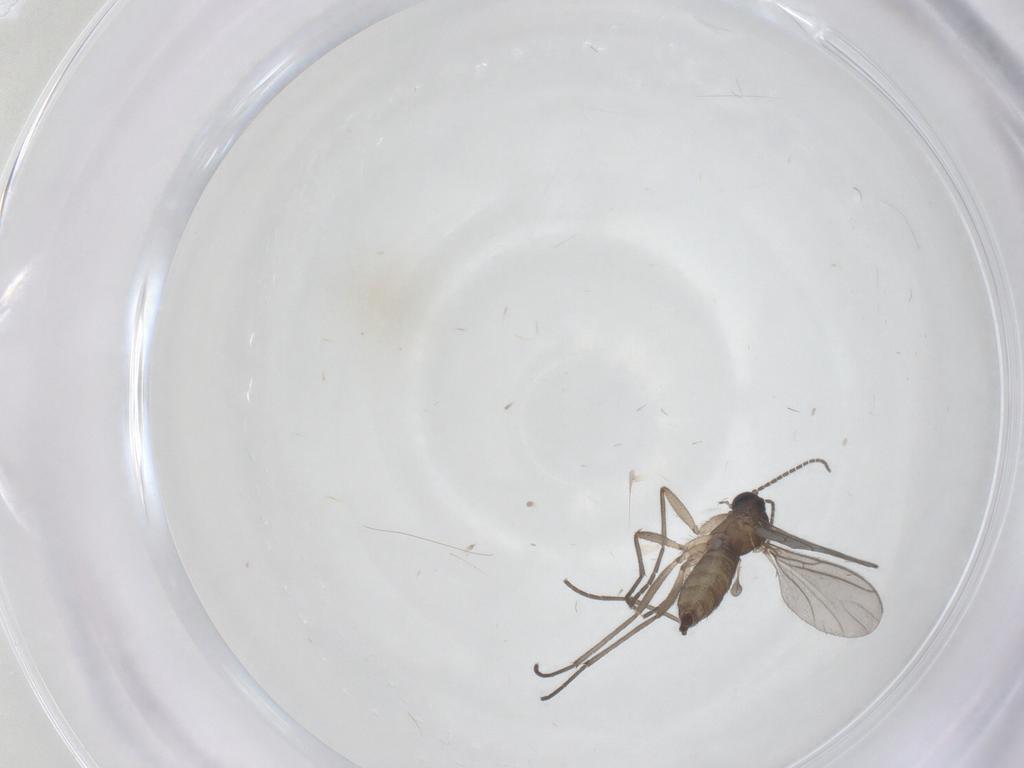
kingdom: Animalia
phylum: Arthropoda
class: Insecta
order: Diptera
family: Sciaridae
